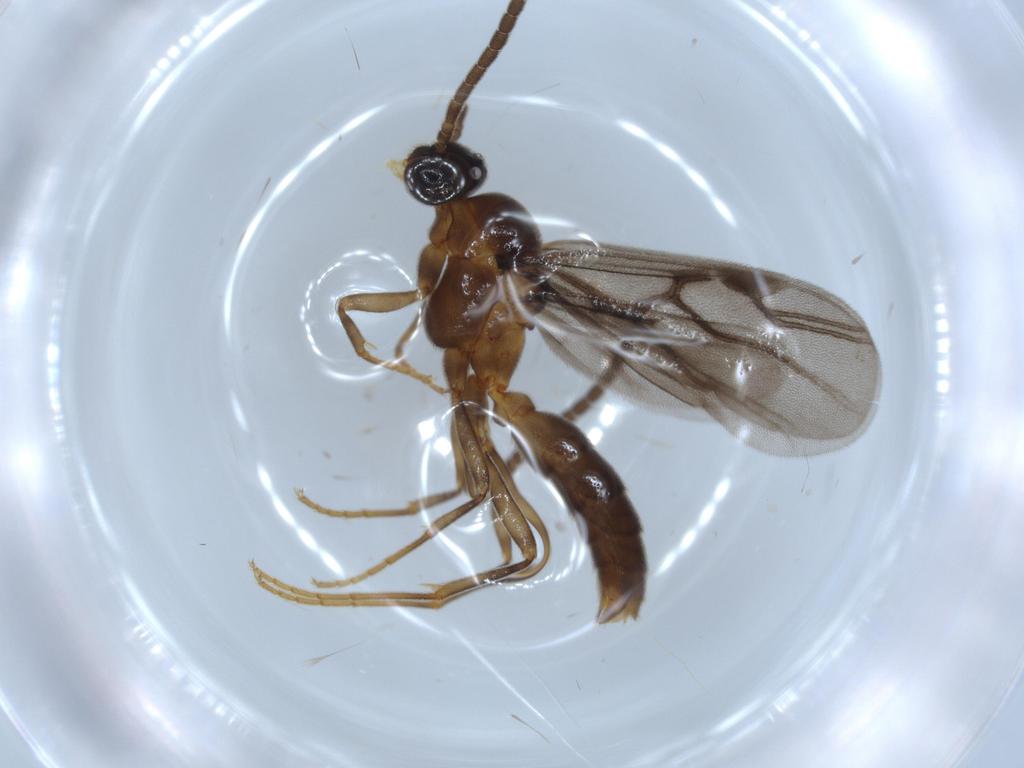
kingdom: Animalia
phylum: Arthropoda
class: Insecta
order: Hymenoptera
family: Formicidae
